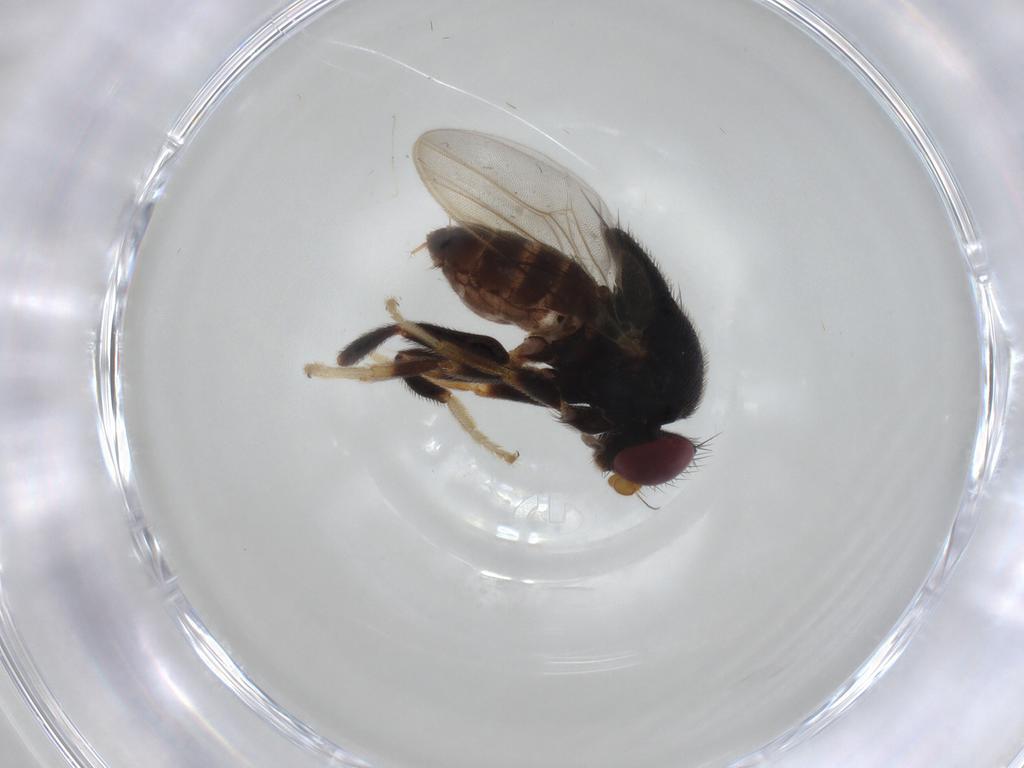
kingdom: Animalia
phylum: Arthropoda
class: Insecta
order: Diptera
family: Chloropidae
